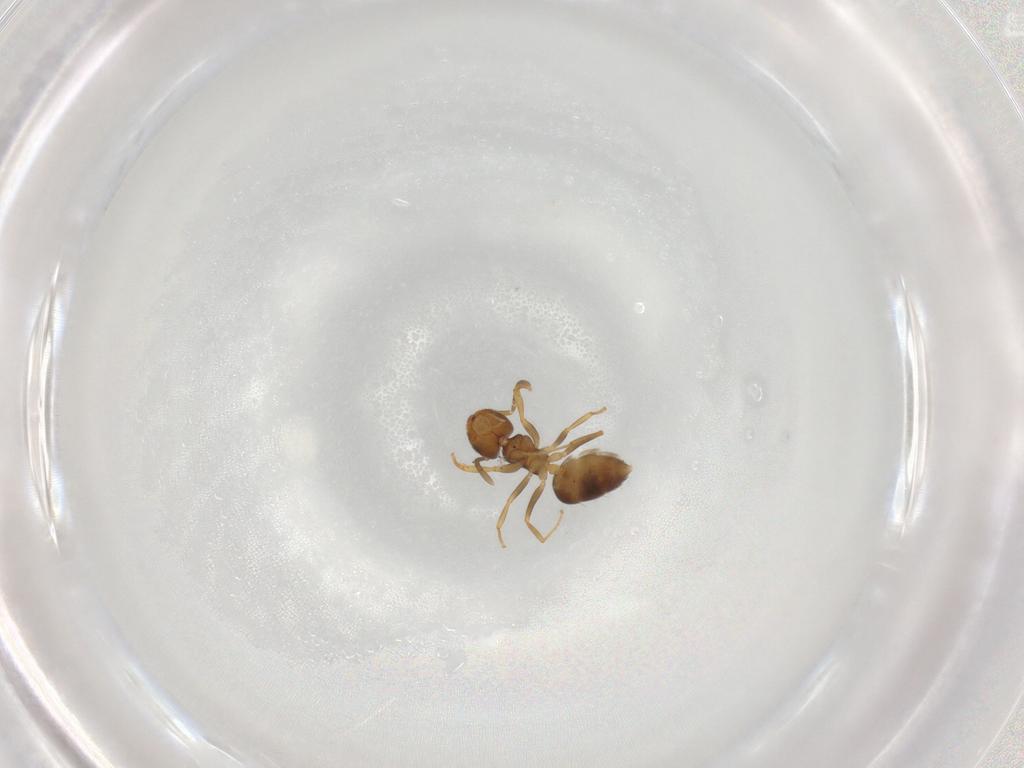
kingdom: Animalia
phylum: Arthropoda
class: Insecta
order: Hymenoptera
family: Formicidae
